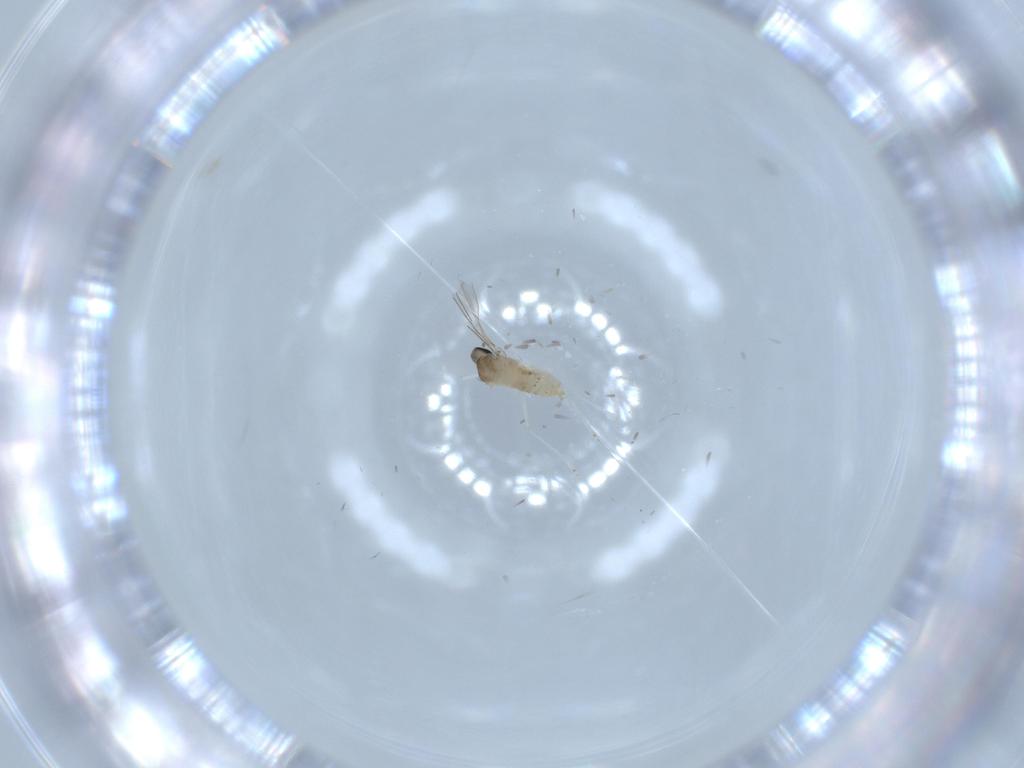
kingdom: Animalia
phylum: Arthropoda
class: Insecta
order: Diptera
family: Cecidomyiidae
